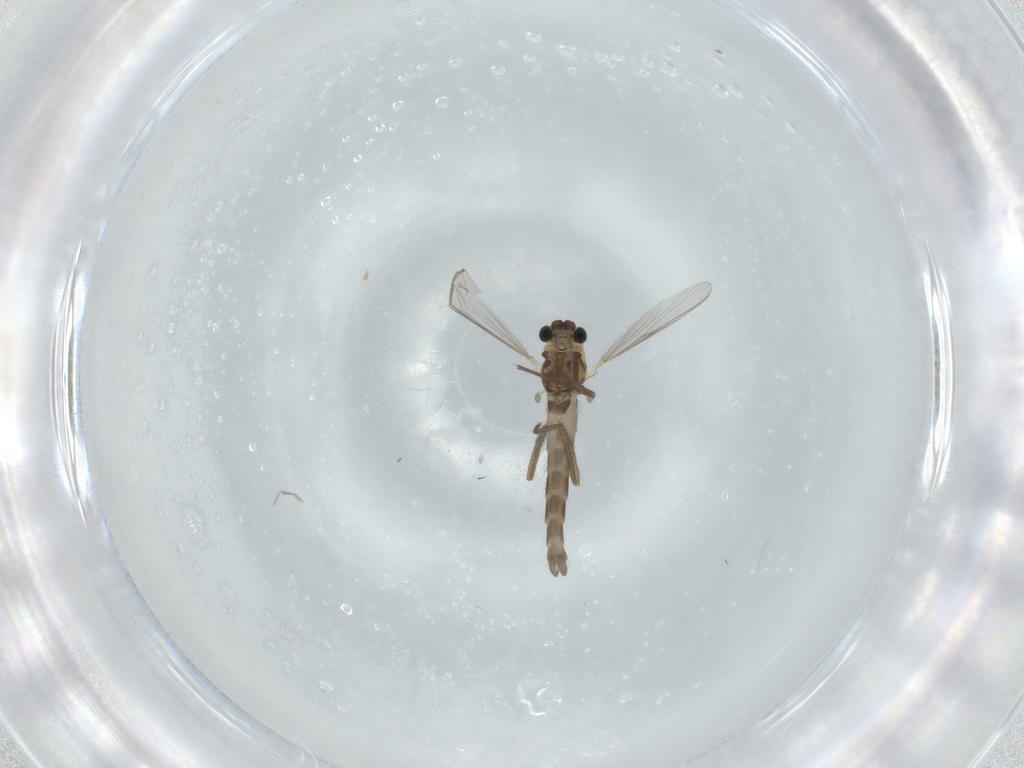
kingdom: Animalia
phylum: Arthropoda
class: Insecta
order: Diptera
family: Chironomidae
